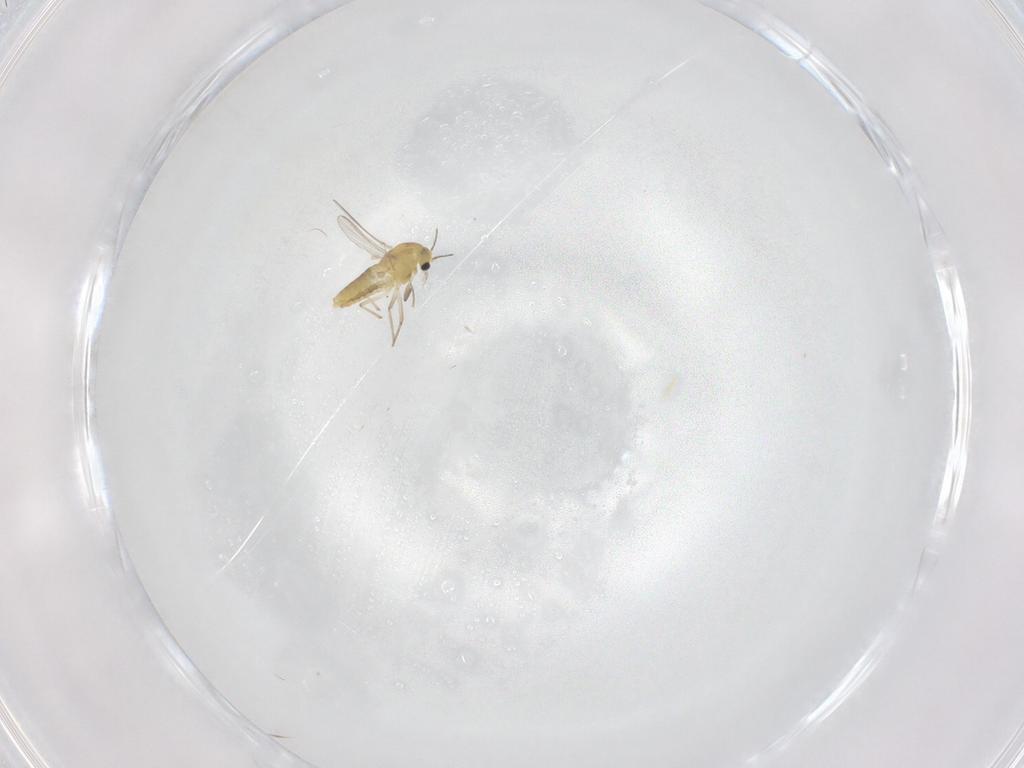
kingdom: Animalia
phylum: Arthropoda
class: Insecta
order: Diptera
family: Chironomidae
